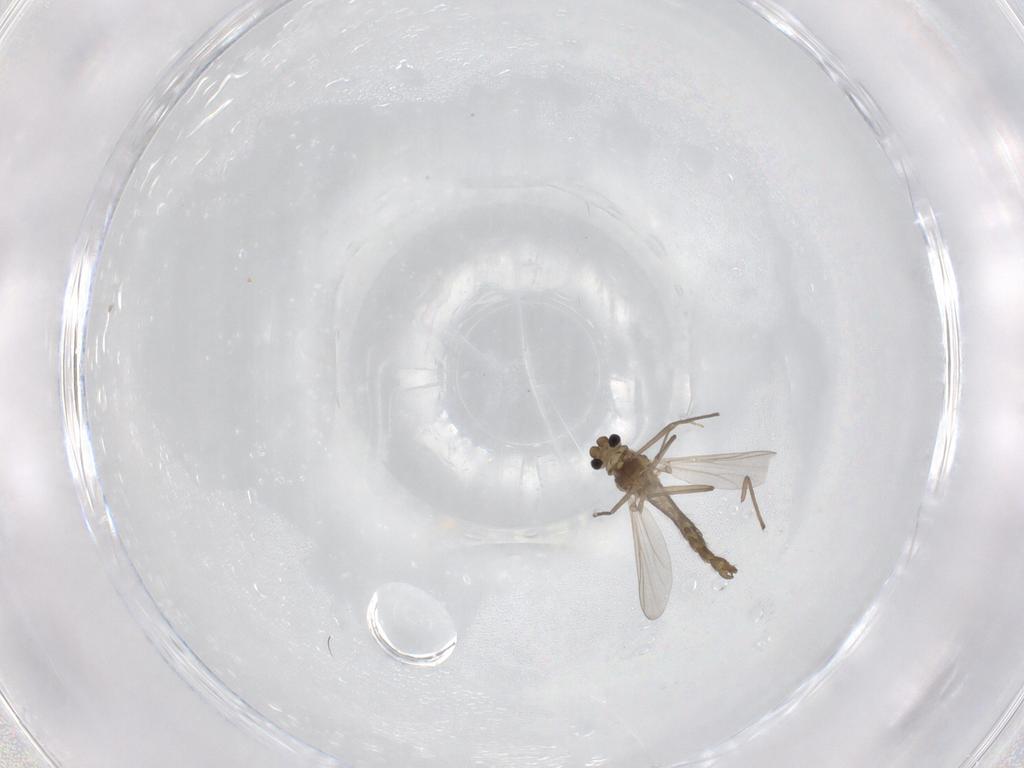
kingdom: Animalia
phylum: Arthropoda
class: Insecta
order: Diptera
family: Chironomidae
